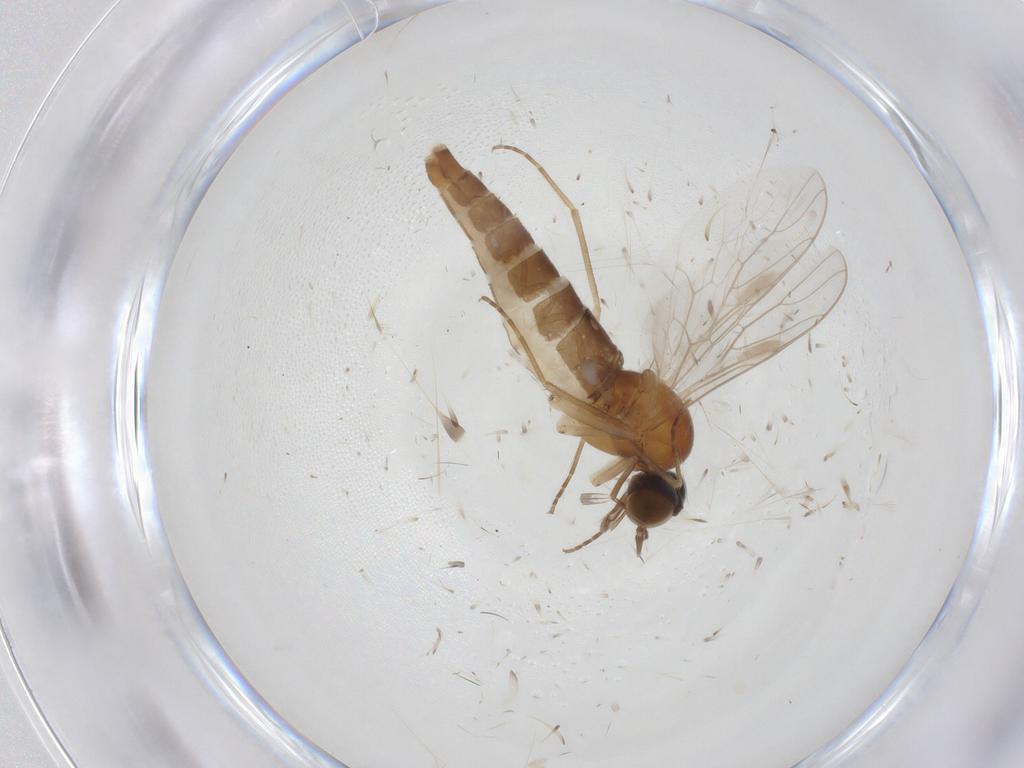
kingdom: Animalia
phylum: Arthropoda
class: Insecta
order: Diptera
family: Scenopinidae
